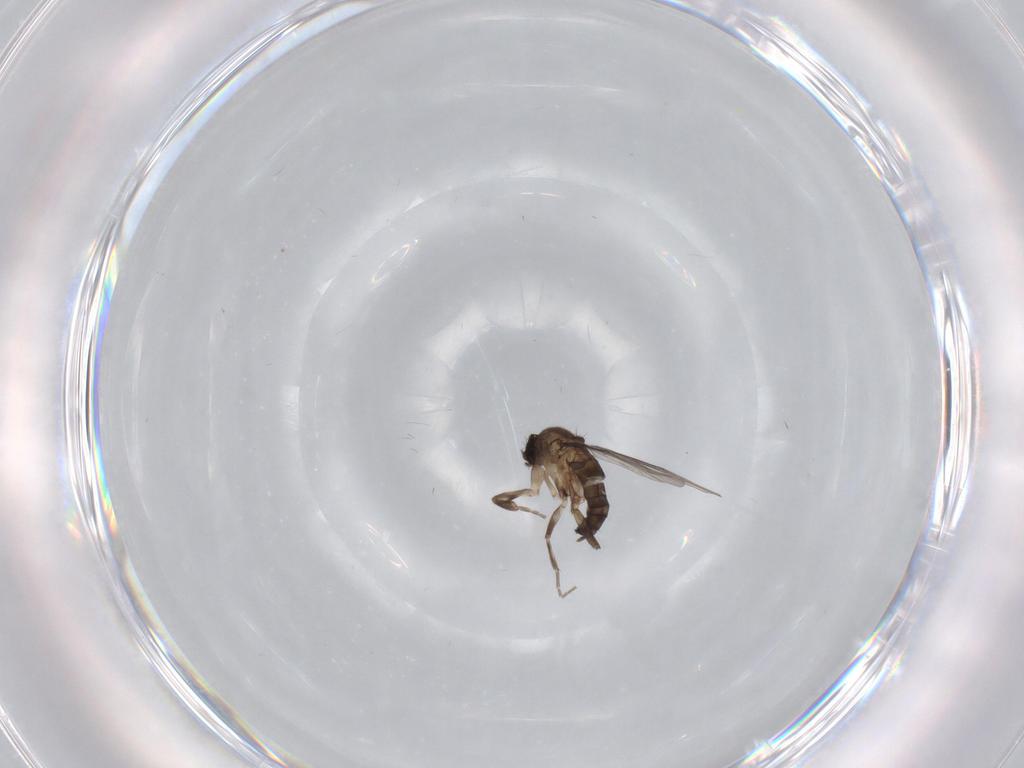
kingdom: Animalia
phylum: Arthropoda
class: Insecta
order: Diptera
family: Phoridae
